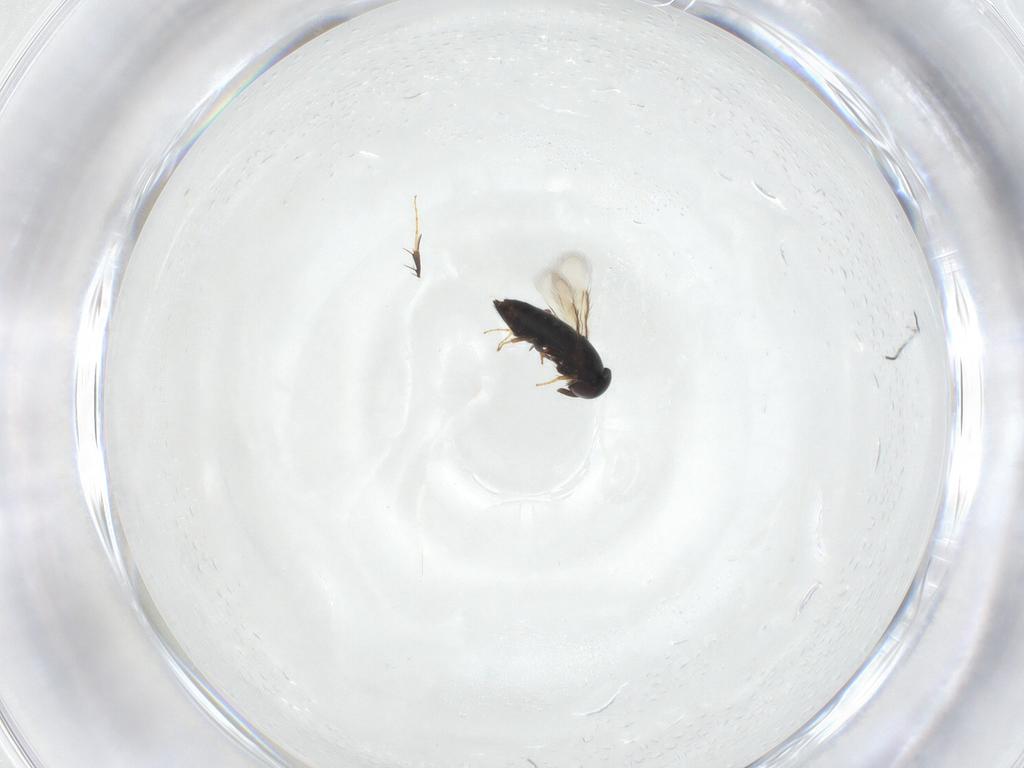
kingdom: Animalia
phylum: Arthropoda
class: Insecta
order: Hymenoptera
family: Signiphoridae
